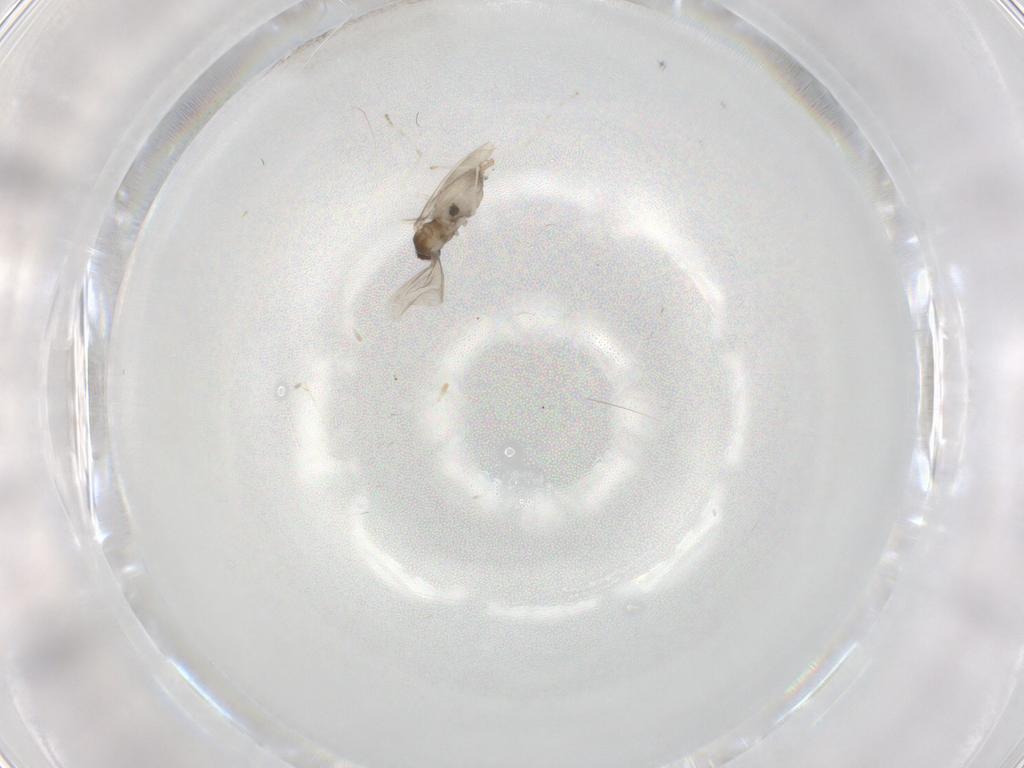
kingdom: Animalia
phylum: Arthropoda
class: Insecta
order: Diptera
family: Cecidomyiidae
